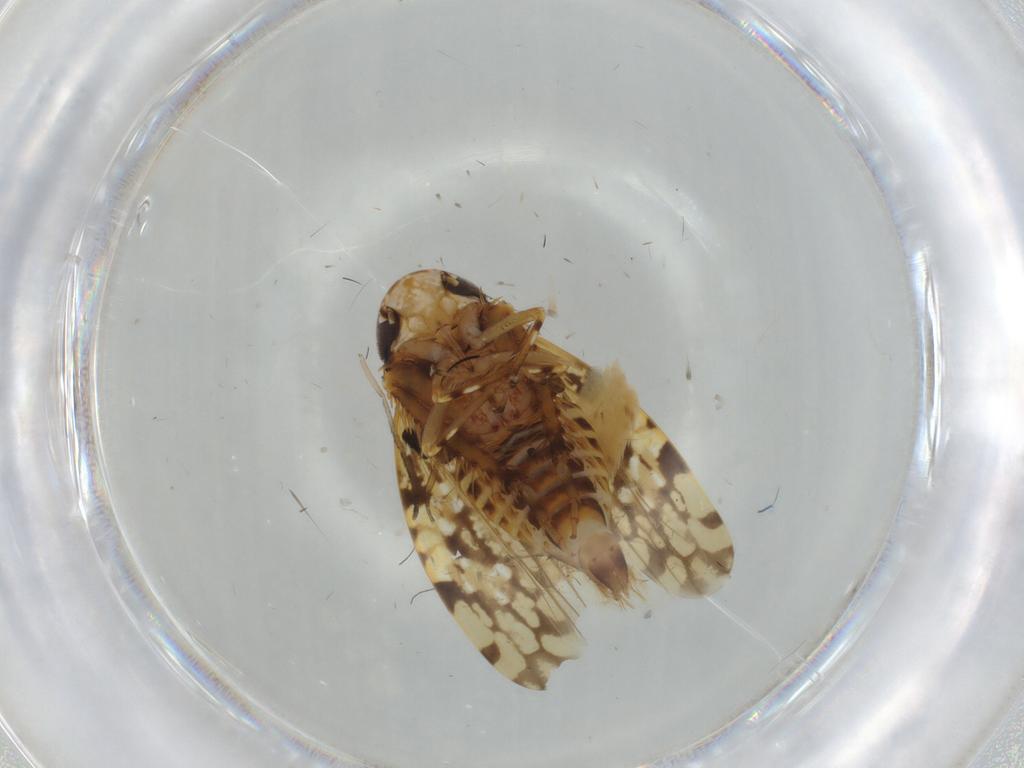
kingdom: Animalia
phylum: Arthropoda
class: Insecta
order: Hemiptera
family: Cicadellidae
